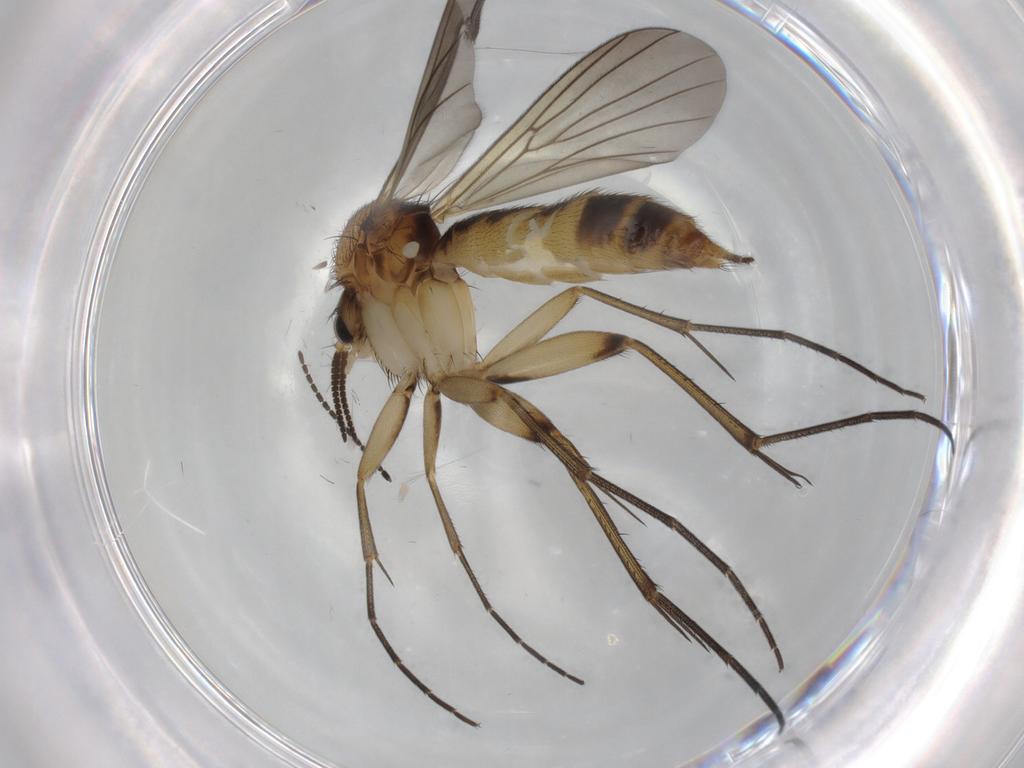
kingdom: Animalia
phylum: Arthropoda
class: Insecta
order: Diptera
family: Mycetophilidae
